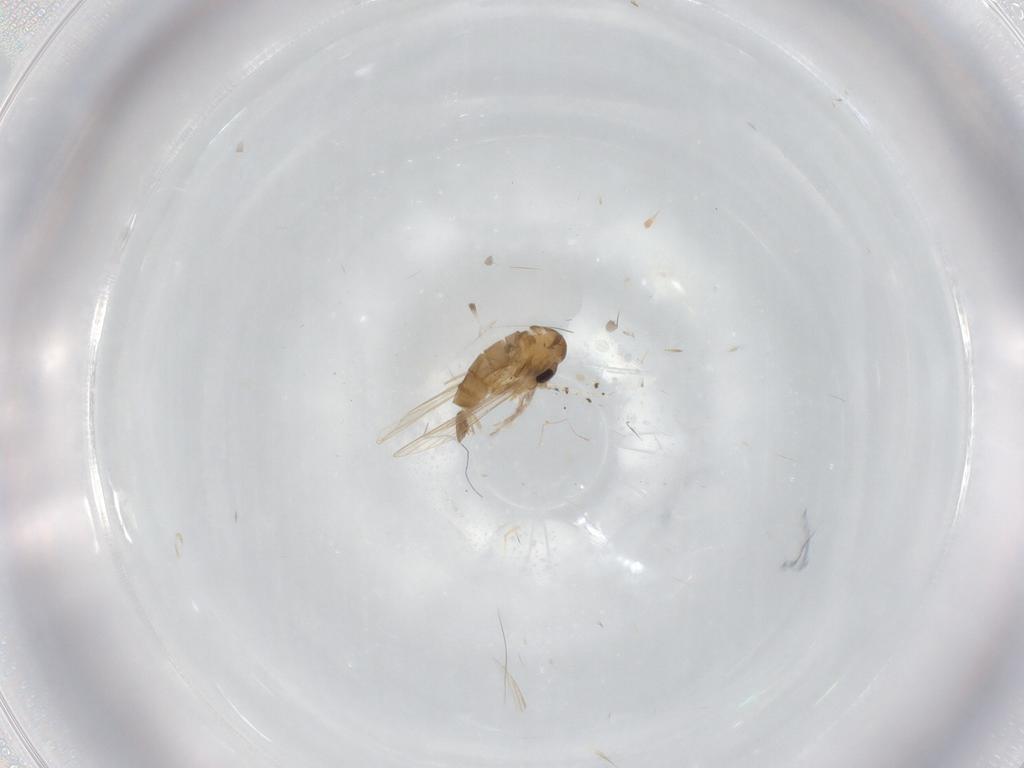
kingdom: Animalia
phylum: Arthropoda
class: Insecta
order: Diptera
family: Psychodidae
